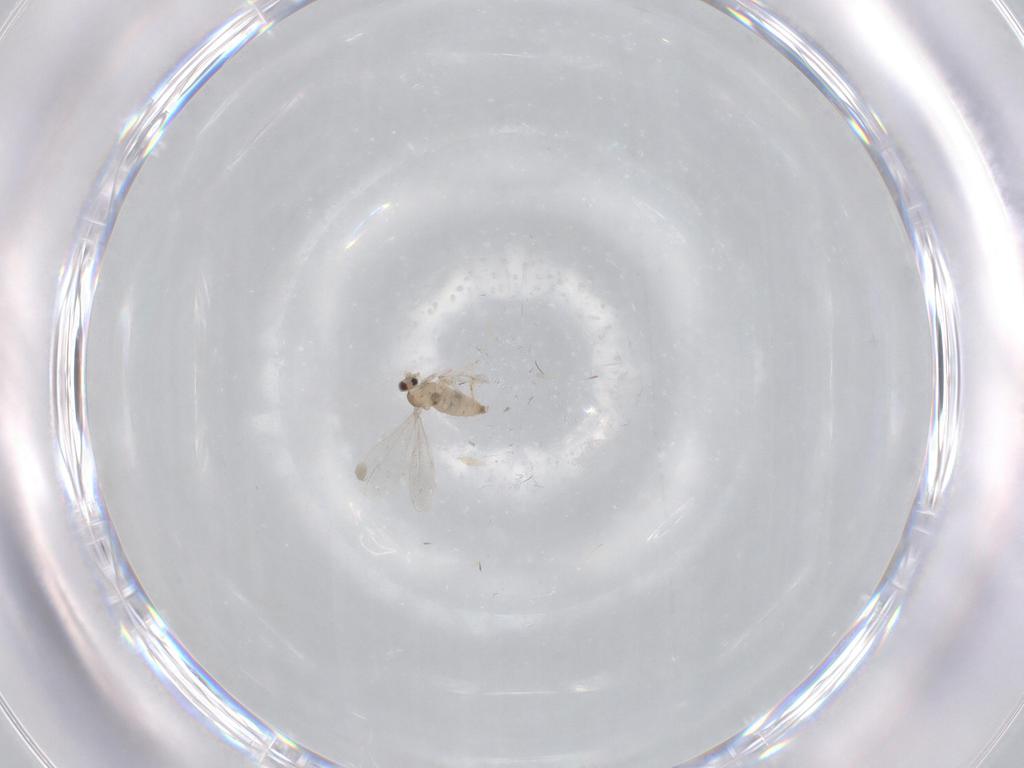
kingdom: Animalia
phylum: Arthropoda
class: Insecta
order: Diptera
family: Cecidomyiidae
